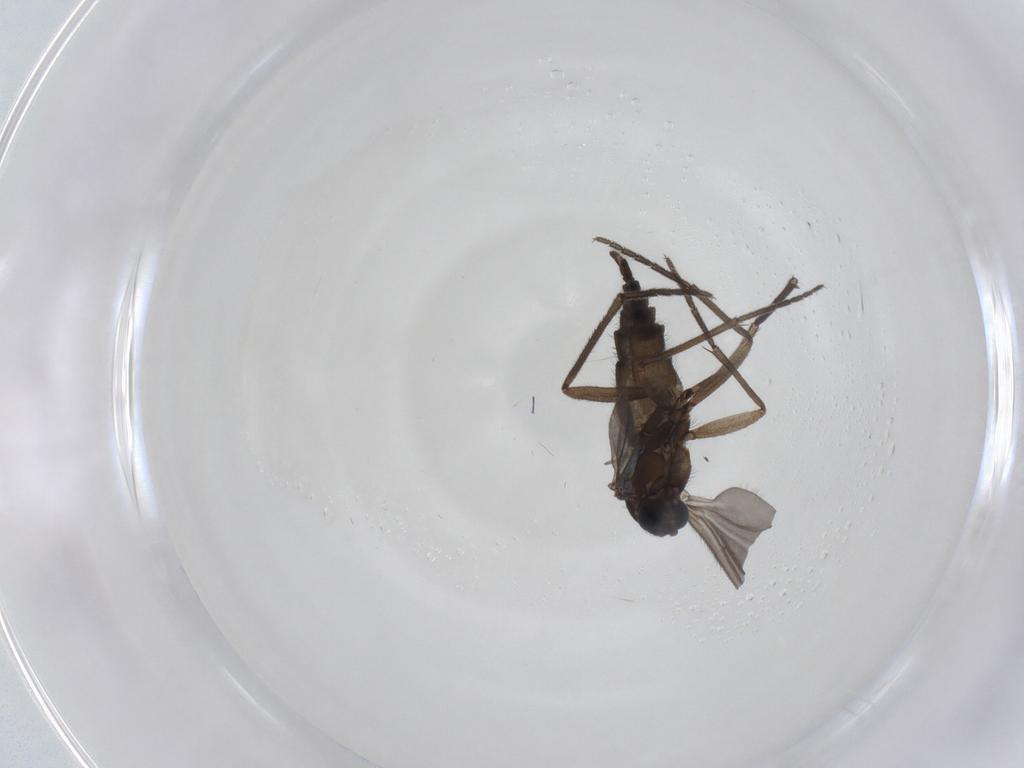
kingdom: Animalia
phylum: Arthropoda
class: Insecta
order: Diptera
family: Sciaridae
